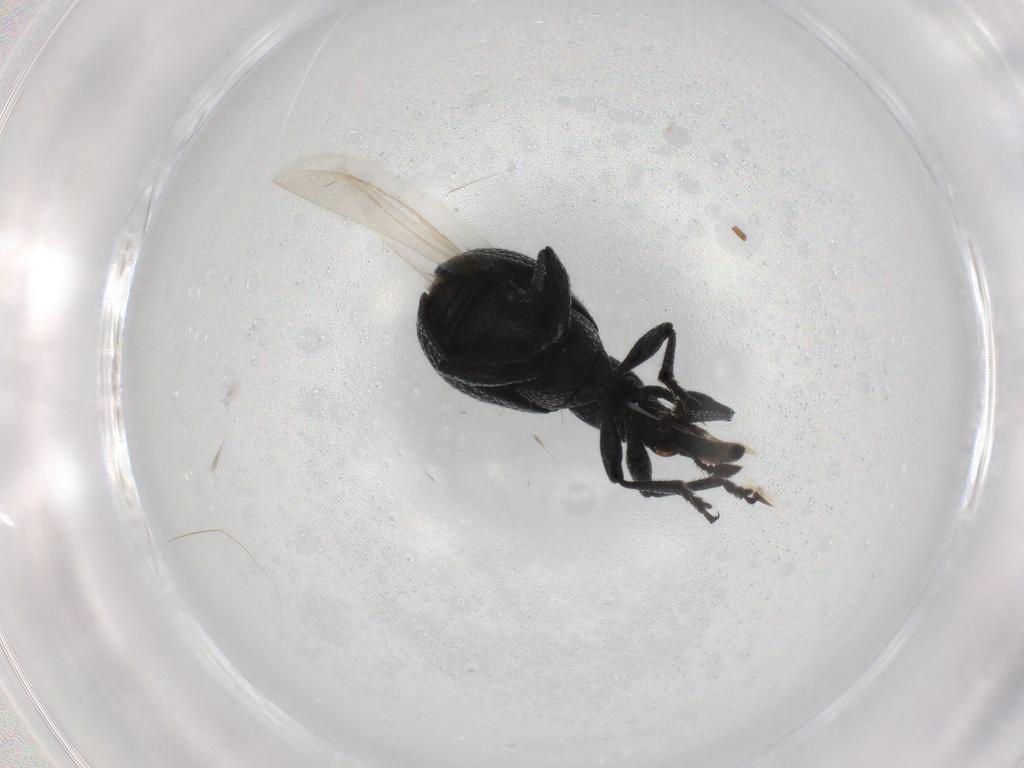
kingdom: Animalia
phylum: Arthropoda
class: Insecta
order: Coleoptera
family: Brentidae
